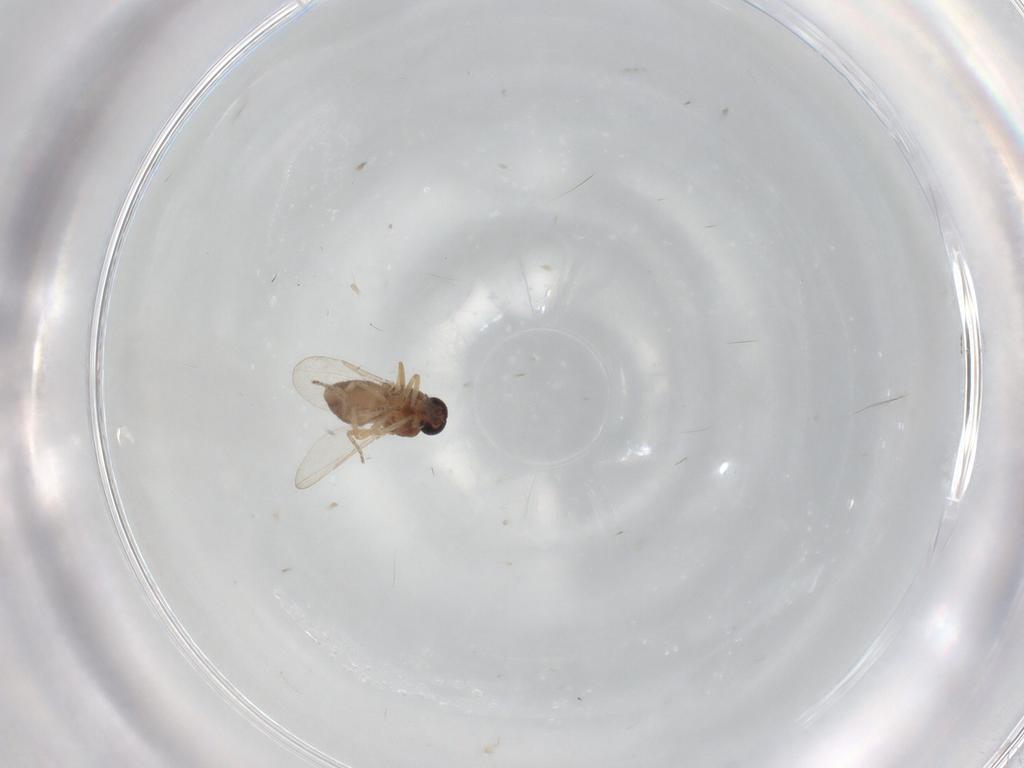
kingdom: Animalia
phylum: Arthropoda
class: Insecta
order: Diptera
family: Ceratopogonidae
